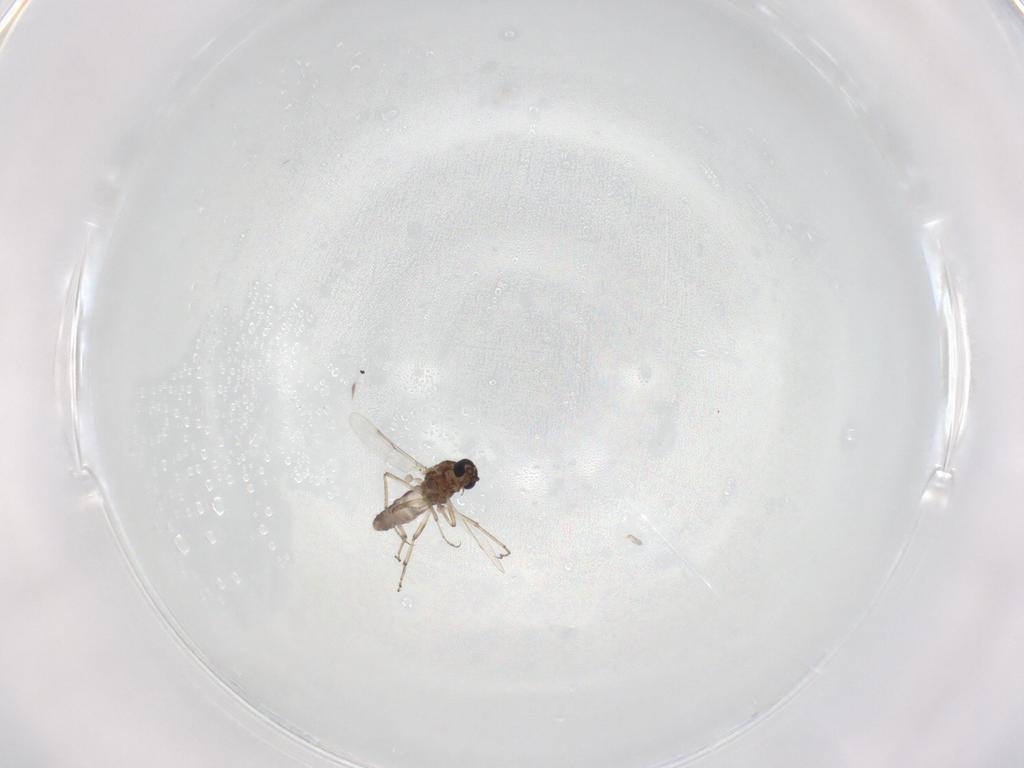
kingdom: Animalia
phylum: Arthropoda
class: Insecta
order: Diptera
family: Ceratopogonidae
